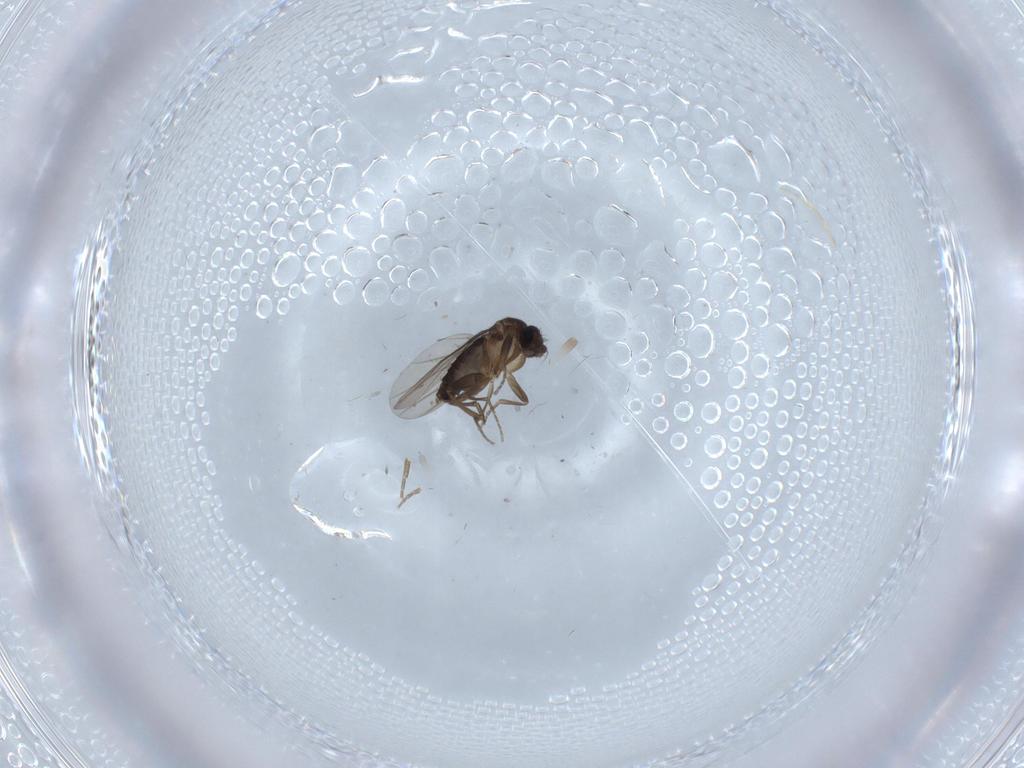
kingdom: Animalia
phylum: Arthropoda
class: Insecta
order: Diptera
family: Phoridae
